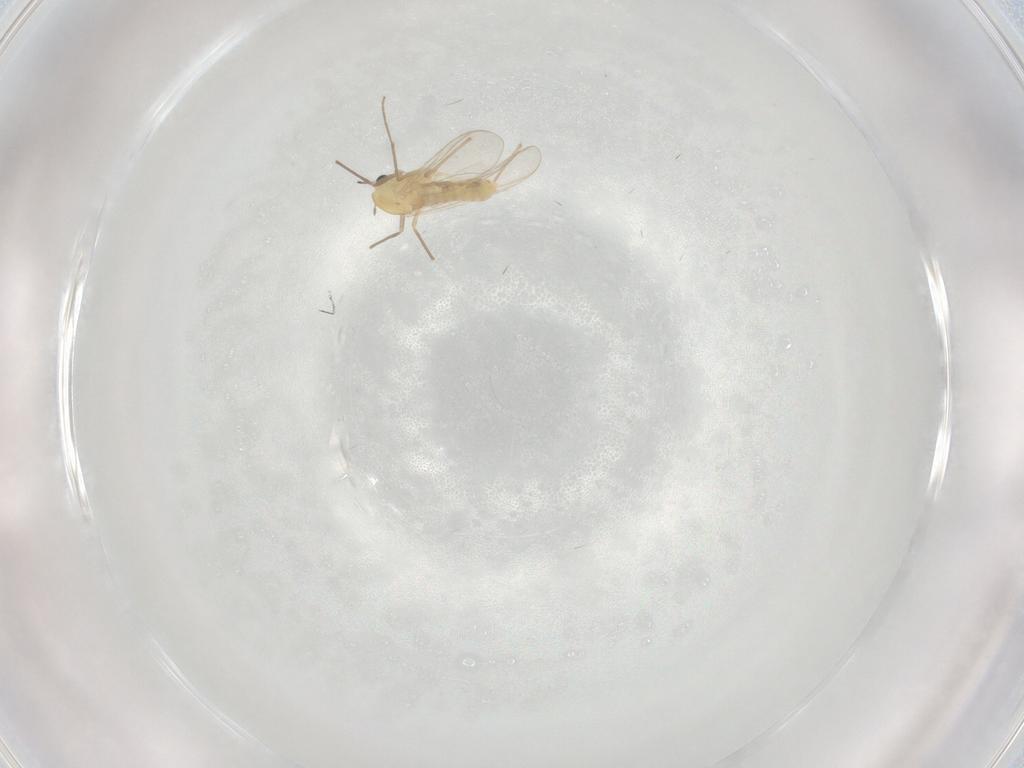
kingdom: Animalia
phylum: Arthropoda
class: Insecta
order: Diptera
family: Chironomidae
